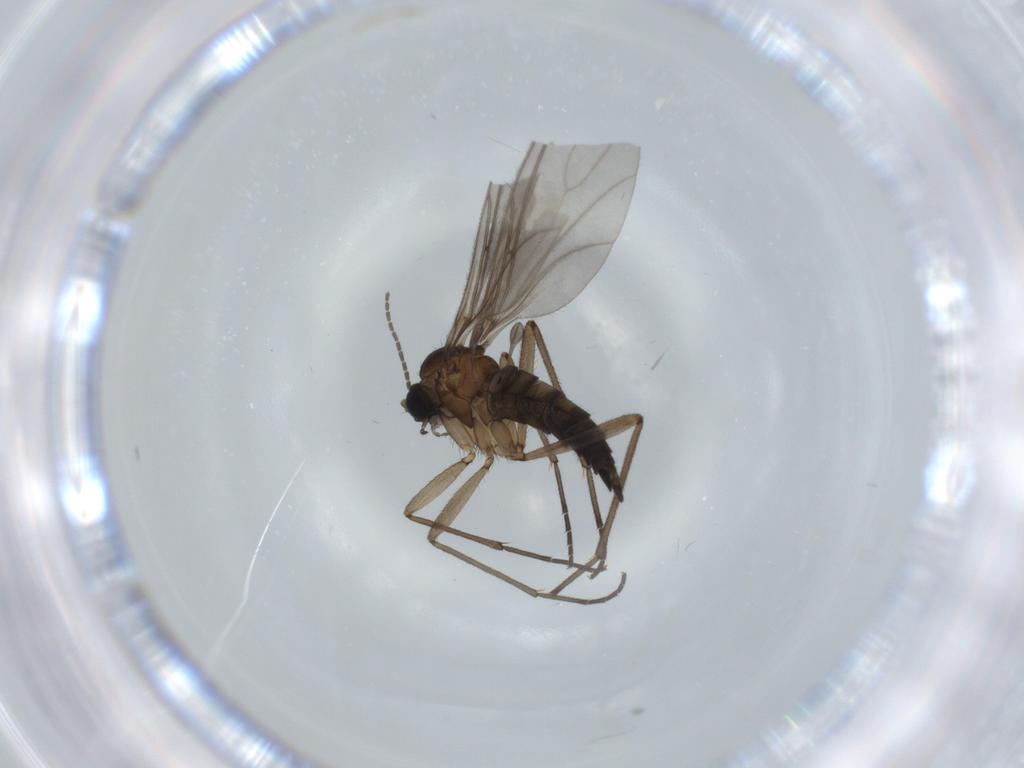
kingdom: Animalia
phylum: Arthropoda
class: Insecta
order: Diptera
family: Sciaridae
